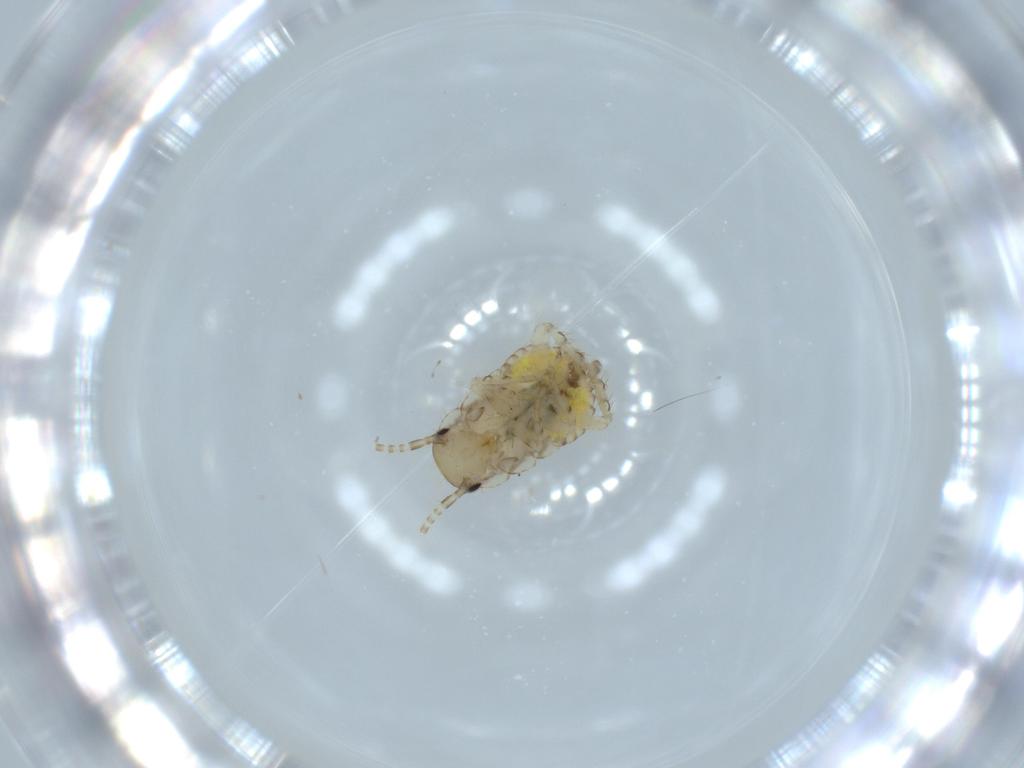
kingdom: Animalia
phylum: Arthropoda
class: Insecta
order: Blattodea
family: Ectobiidae
